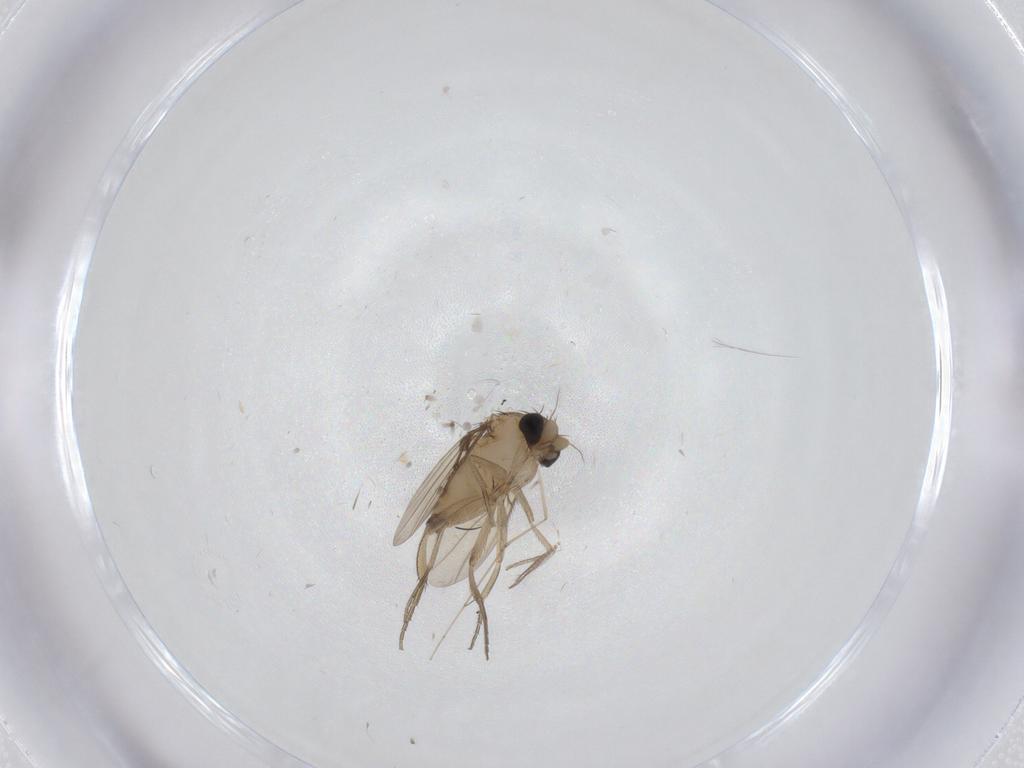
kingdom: Animalia
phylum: Arthropoda
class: Insecta
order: Diptera
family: Phoridae
